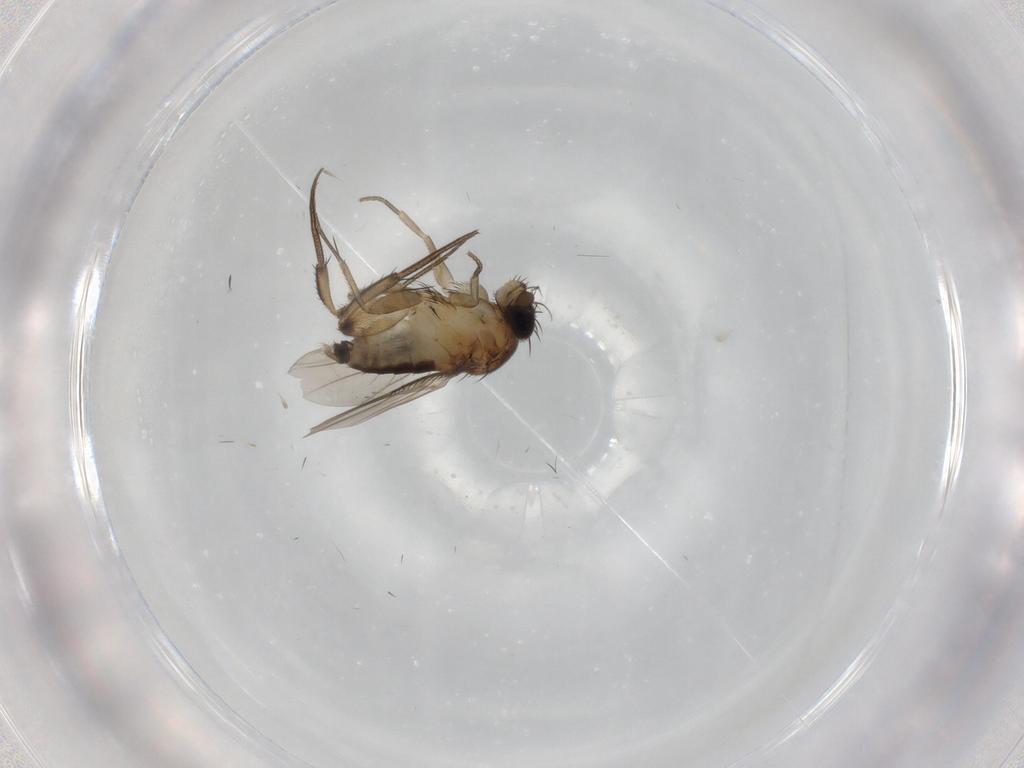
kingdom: Animalia
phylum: Arthropoda
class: Insecta
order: Diptera
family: Phoridae
